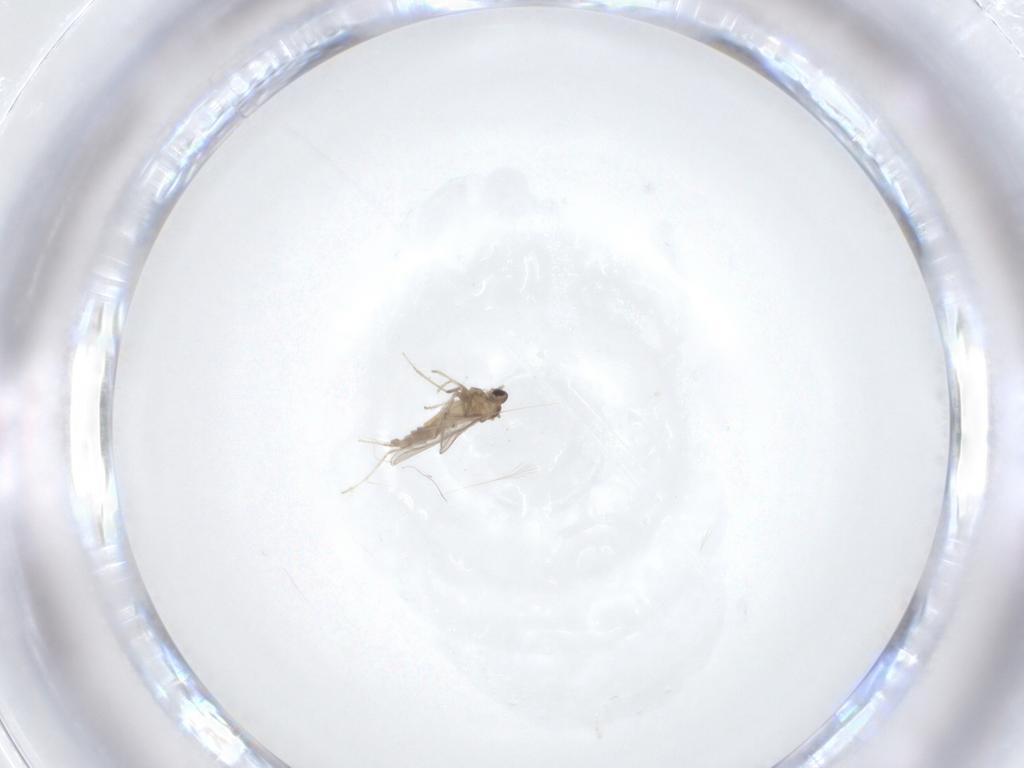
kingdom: Animalia
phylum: Arthropoda
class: Insecta
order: Diptera
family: Cecidomyiidae
